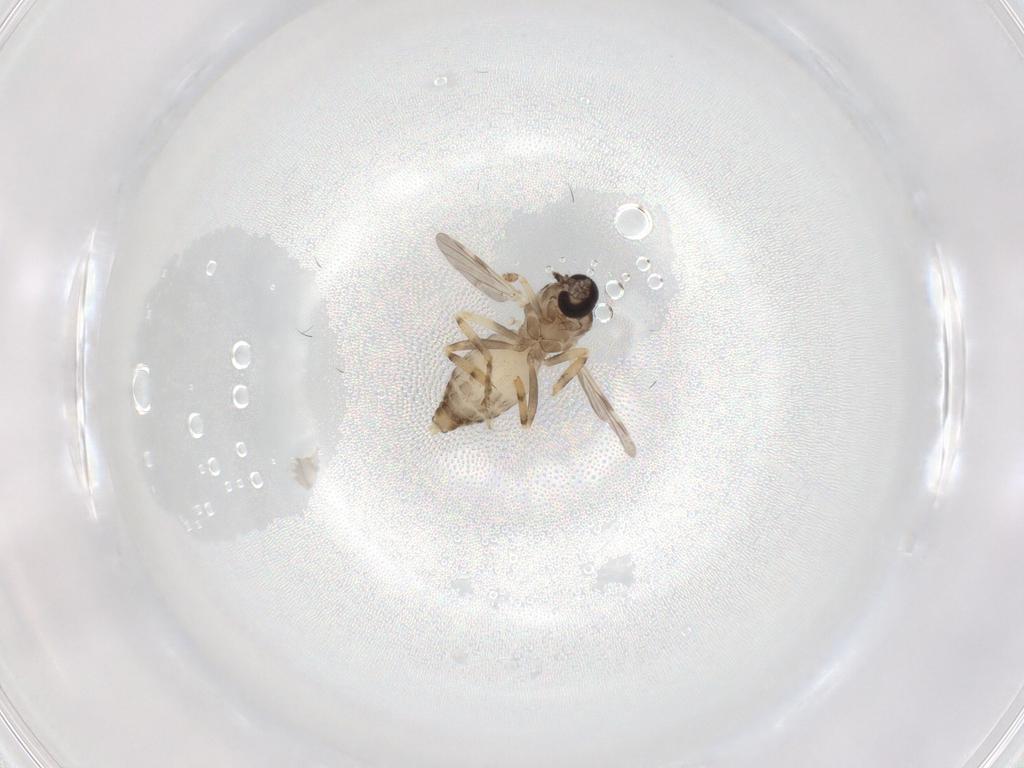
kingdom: Animalia
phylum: Arthropoda
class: Insecta
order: Diptera
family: Ceratopogonidae
